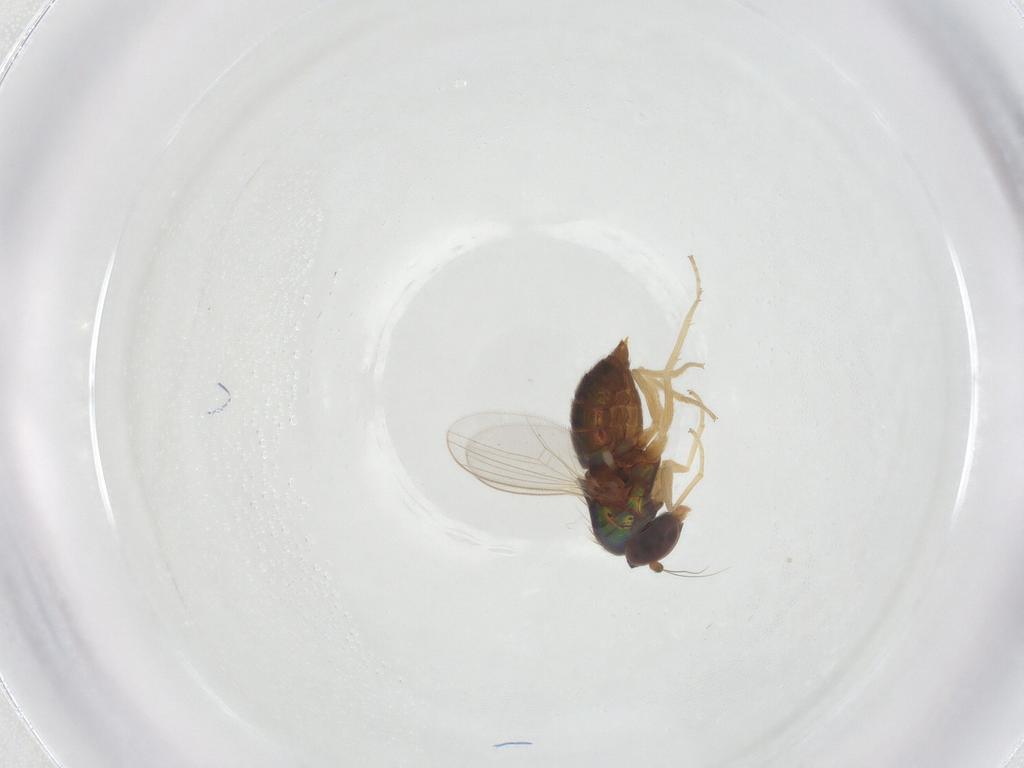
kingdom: Animalia
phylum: Arthropoda
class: Insecta
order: Diptera
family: Dolichopodidae
